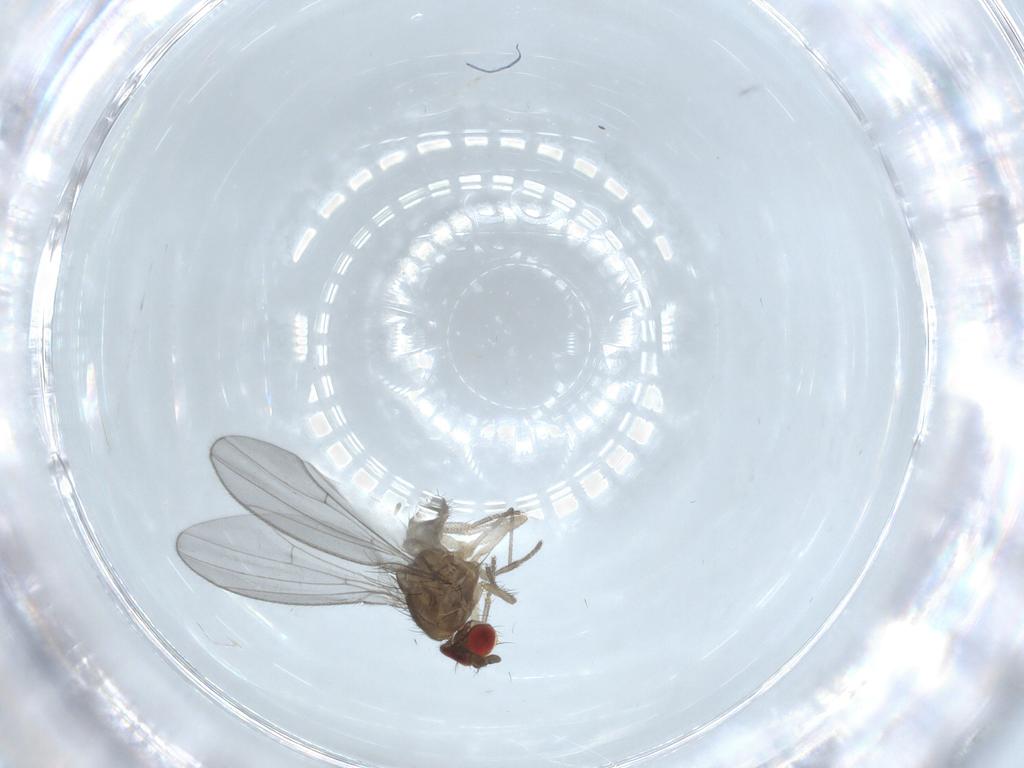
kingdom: Animalia
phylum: Arthropoda
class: Insecta
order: Diptera
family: Drosophilidae
